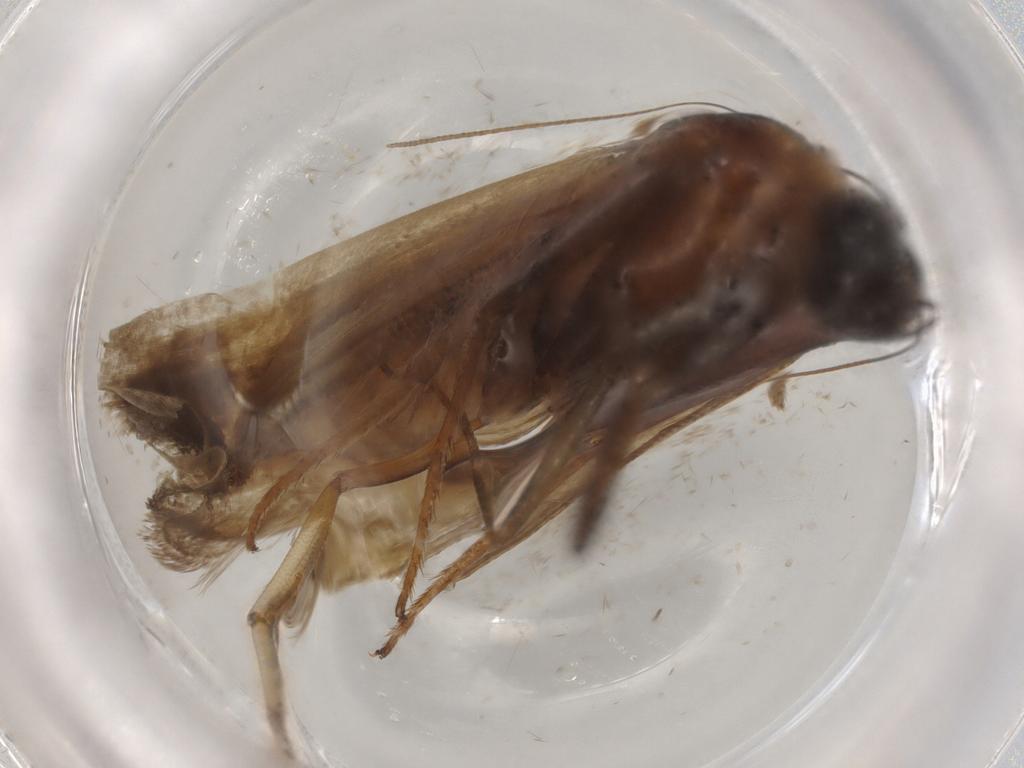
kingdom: Animalia
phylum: Arthropoda
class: Insecta
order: Lepidoptera
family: Pyralidae
